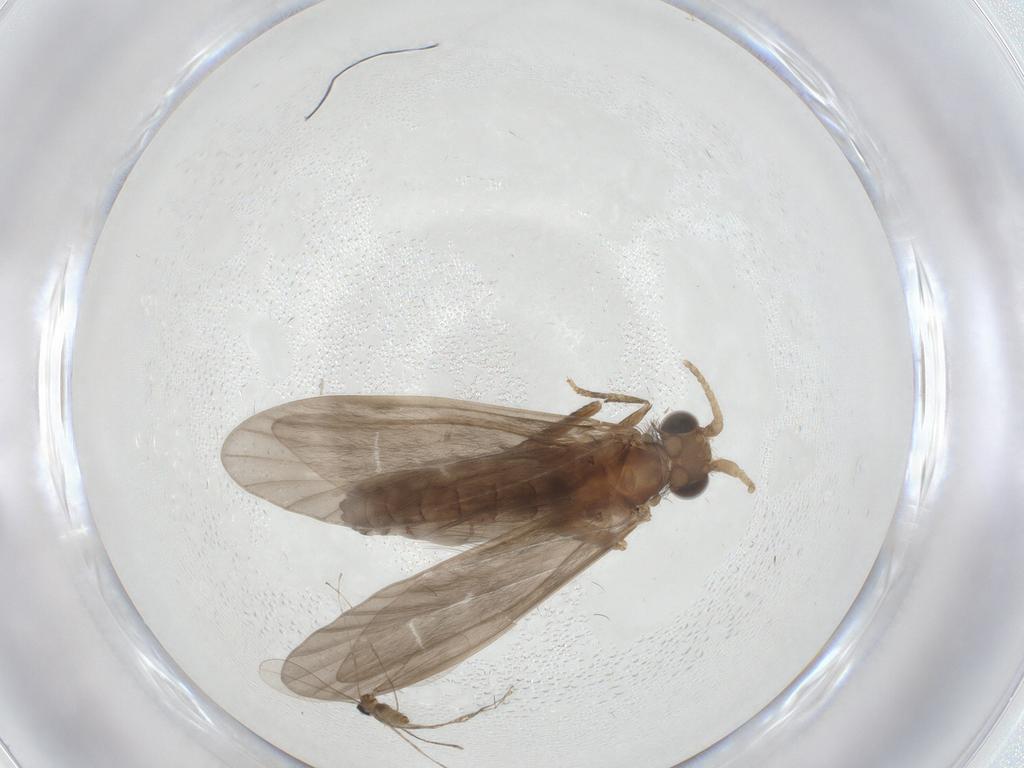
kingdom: Animalia
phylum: Arthropoda
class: Insecta
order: Trichoptera
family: Helicopsychidae
